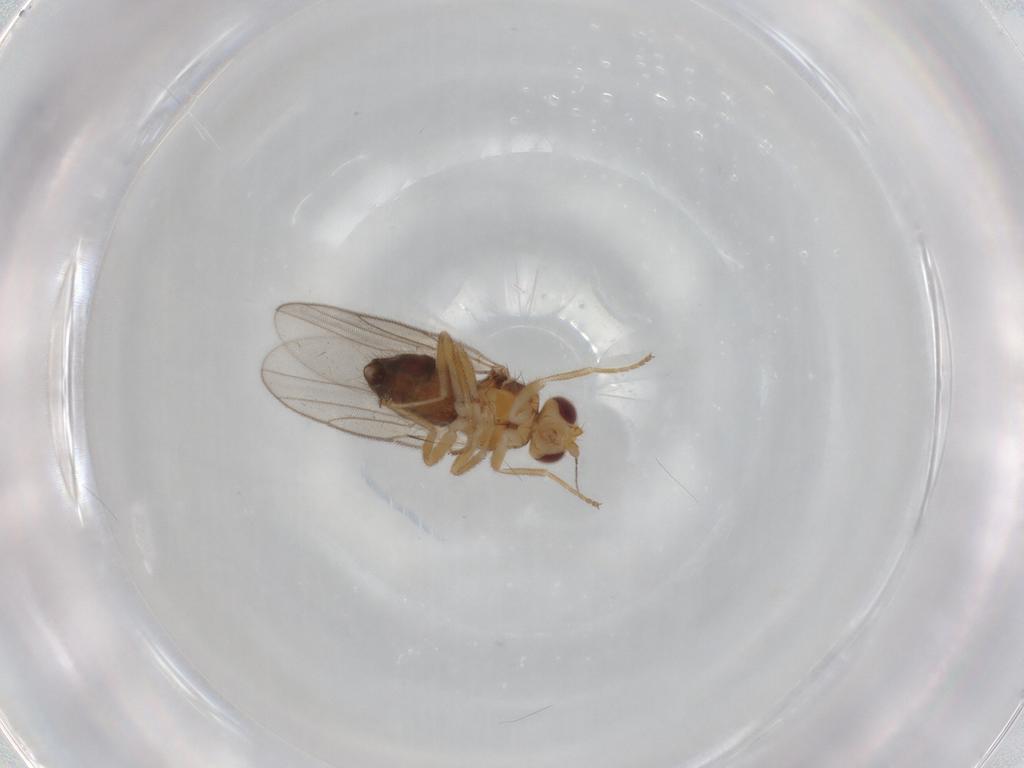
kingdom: Animalia
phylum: Arthropoda
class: Insecta
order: Diptera
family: Chloropidae
